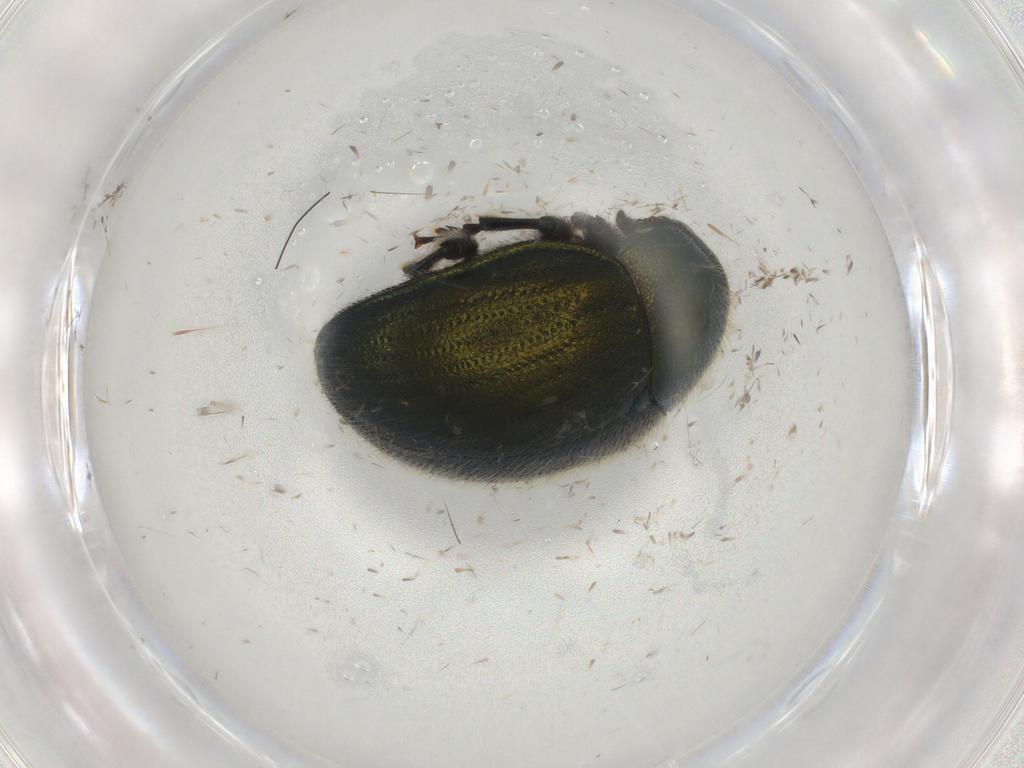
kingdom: Animalia
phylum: Arthropoda
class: Insecta
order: Coleoptera
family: Chrysomelidae
